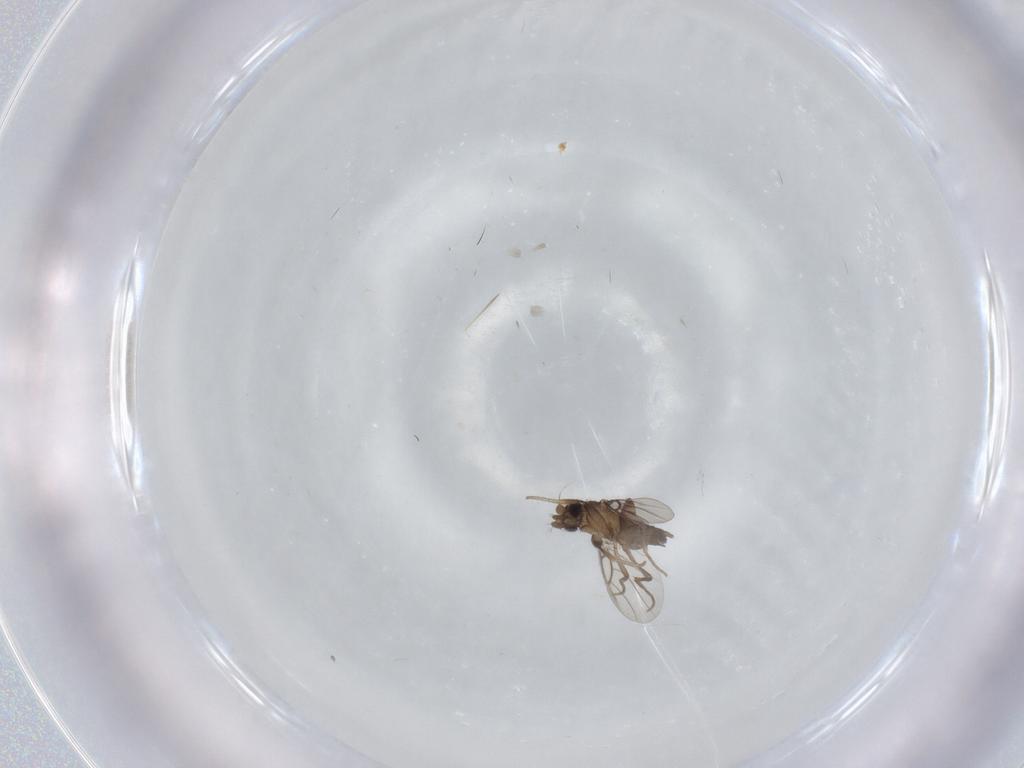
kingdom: Animalia
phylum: Arthropoda
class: Insecta
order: Diptera
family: Phoridae
